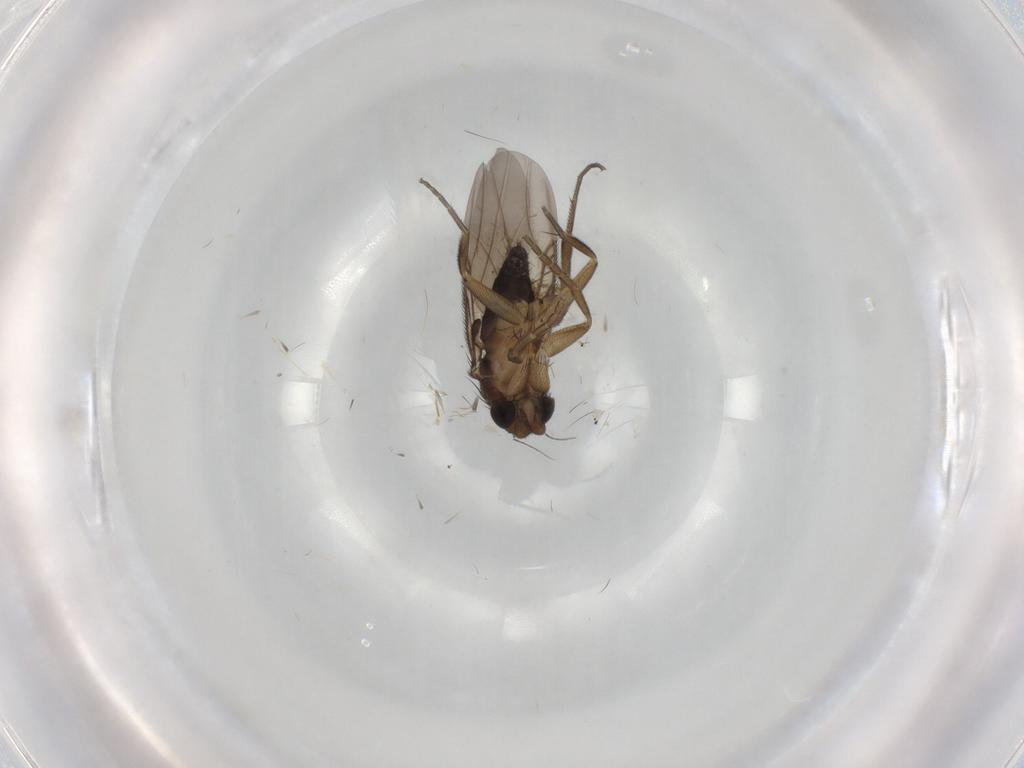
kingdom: Animalia
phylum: Arthropoda
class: Insecta
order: Diptera
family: Phoridae
